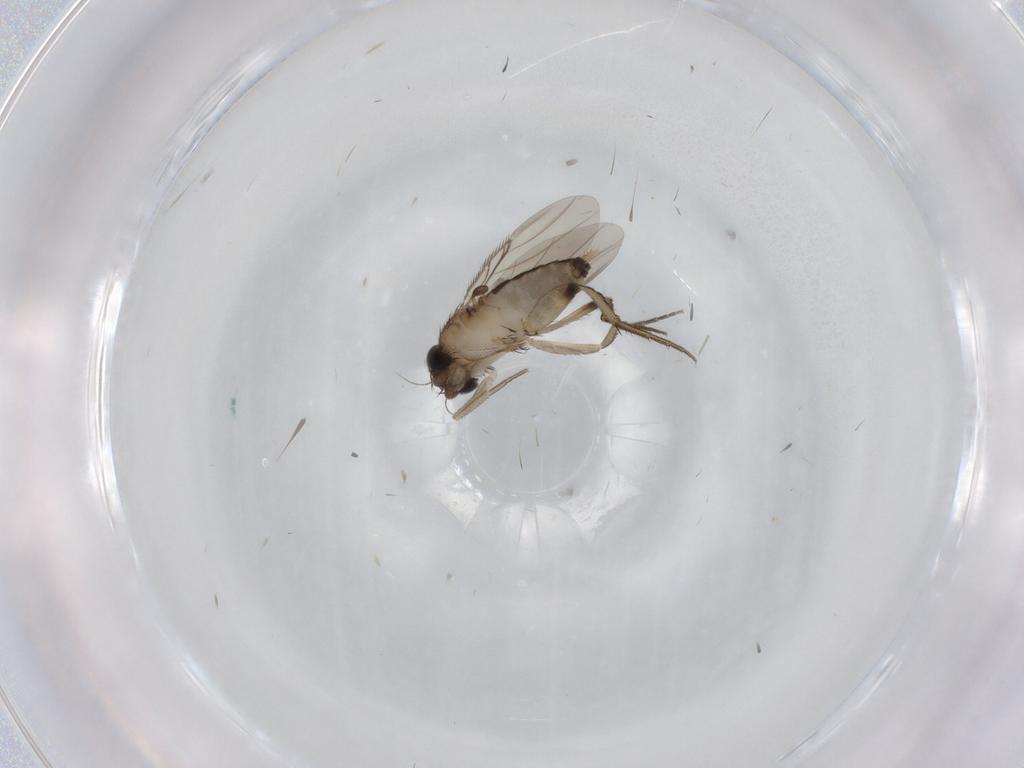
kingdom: Animalia
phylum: Arthropoda
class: Insecta
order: Diptera
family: Phoridae
